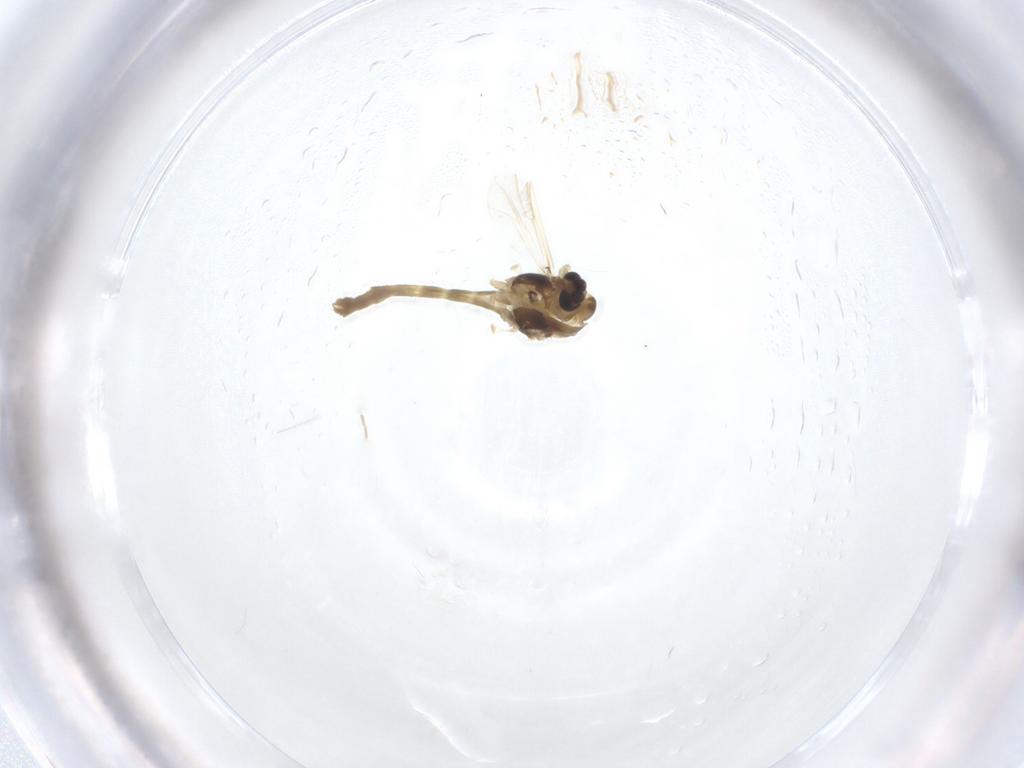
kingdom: Animalia
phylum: Arthropoda
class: Insecta
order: Diptera
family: Chironomidae
